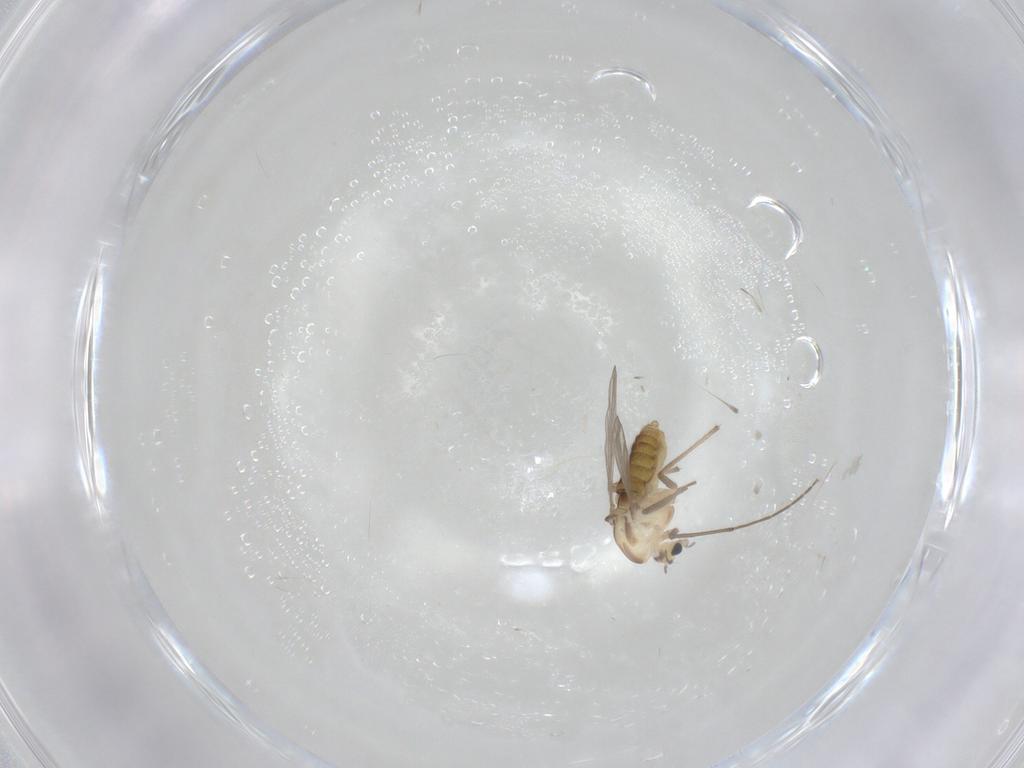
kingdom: Animalia
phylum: Arthropoda
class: Insecta
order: Diptera
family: Chironomidae
